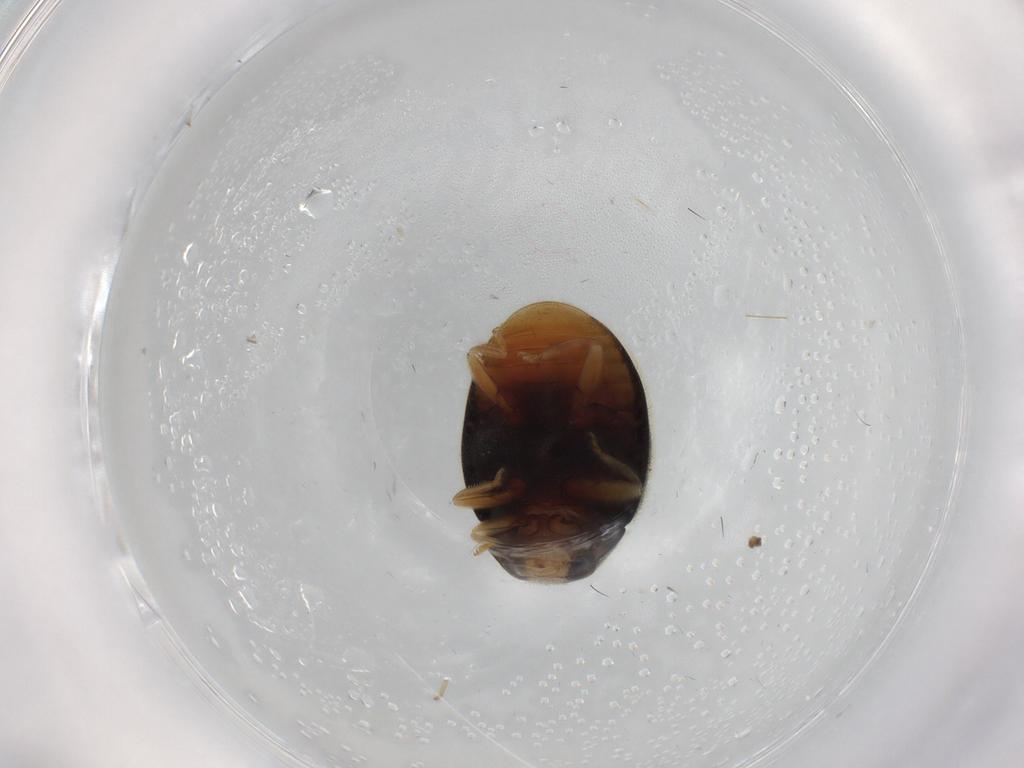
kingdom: Animalia
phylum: Arthropoda
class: Insecta
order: Coleoptera
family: Coccinellidae
